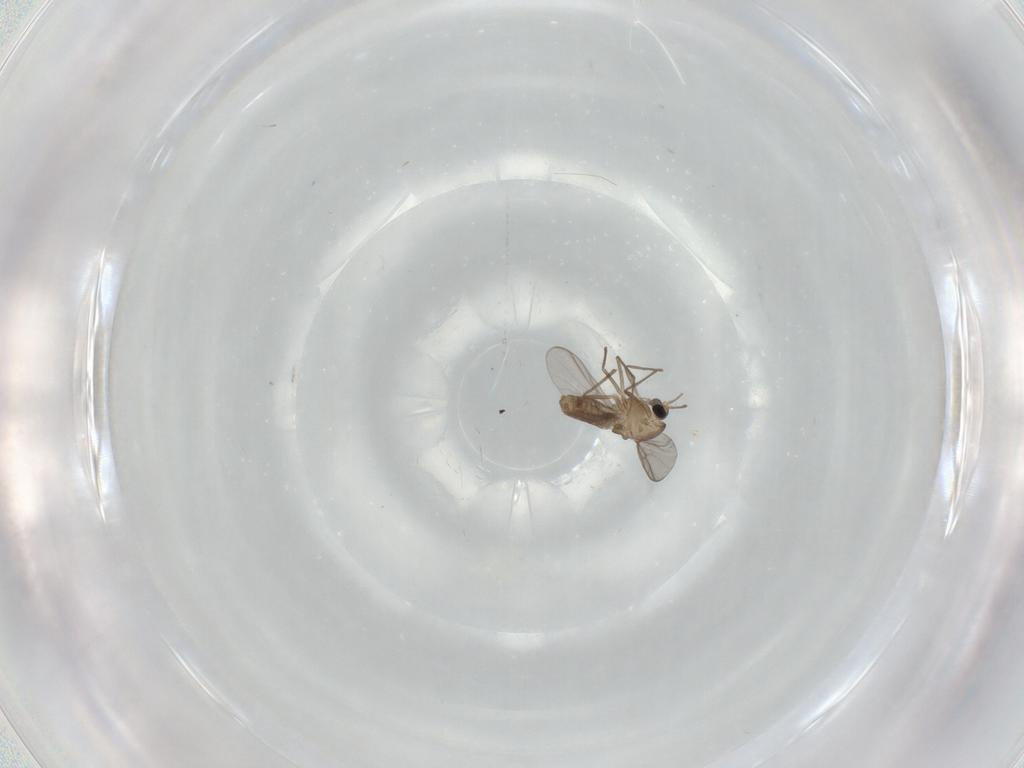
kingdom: Animalia
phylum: Arthropoda
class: Insecta
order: Diptera
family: Chironomidae
